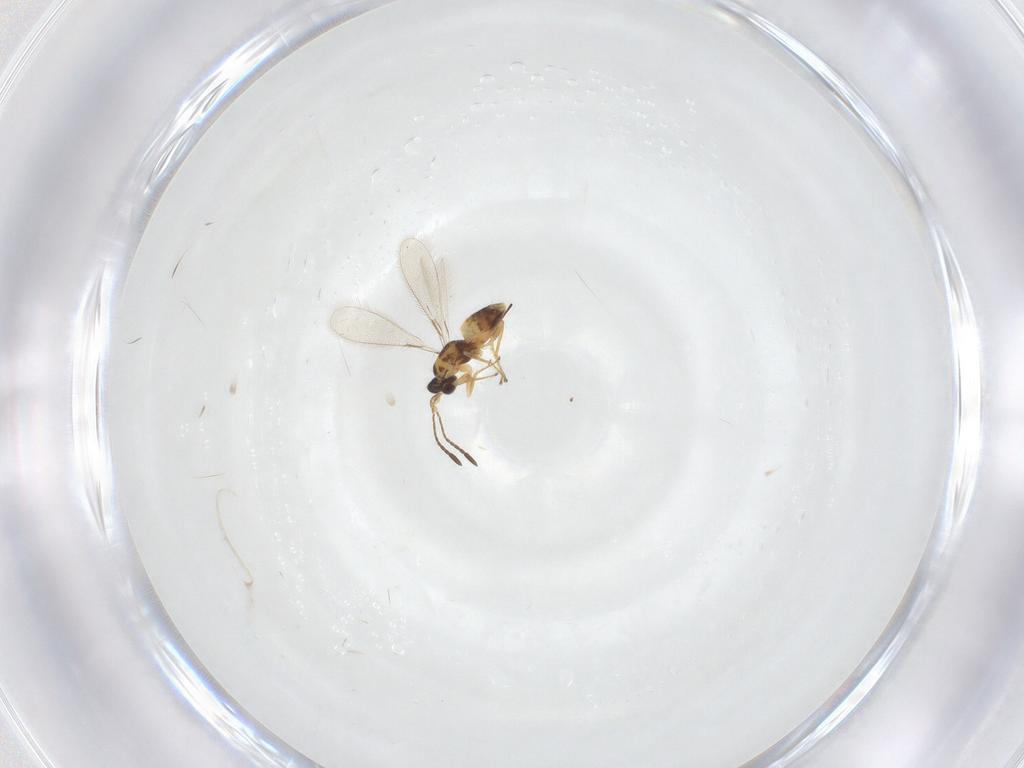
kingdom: Animalia
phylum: Arthropoda
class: Insecta
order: Hymenoptera
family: Mymaridae
